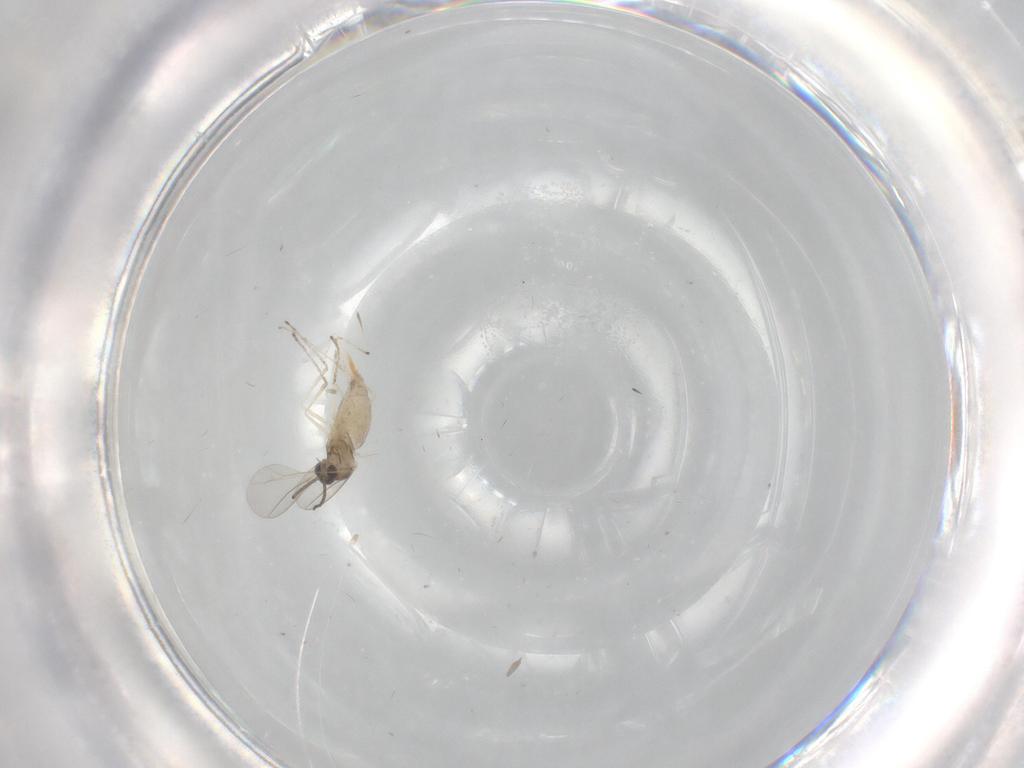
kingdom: Animalia
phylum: Arthropoda
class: Insecta
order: Diptera
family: Cecidomyiidae
